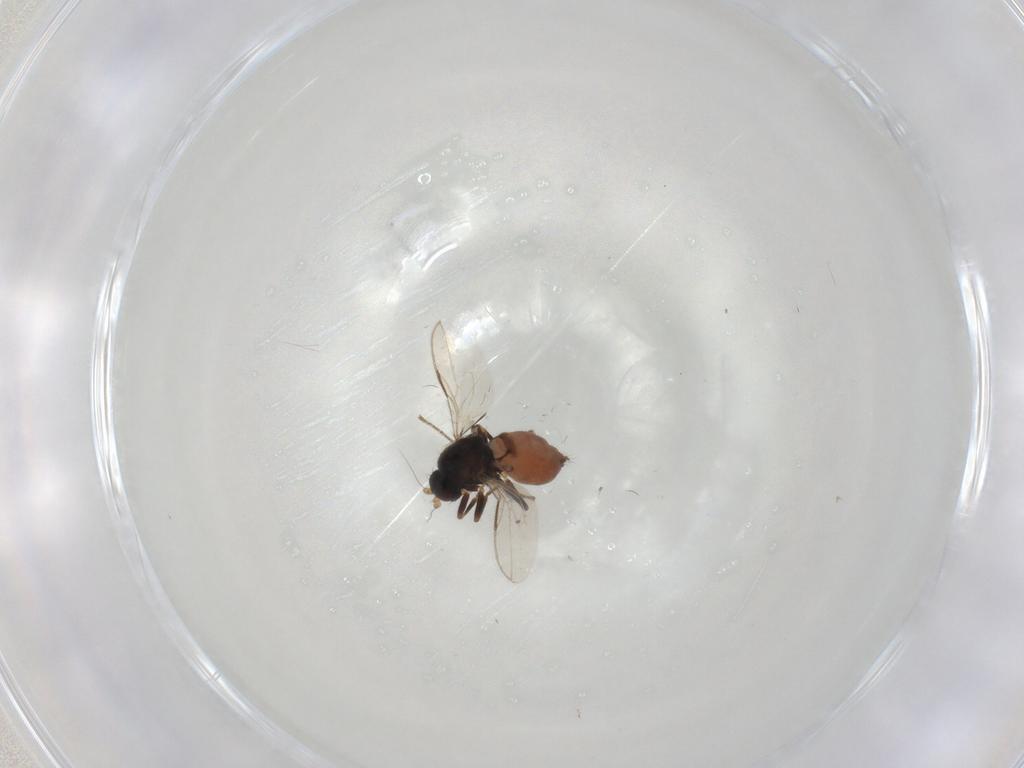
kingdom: Animalia
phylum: Arthropoda
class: Insecta
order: Diptera
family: Sphaeroceridae
